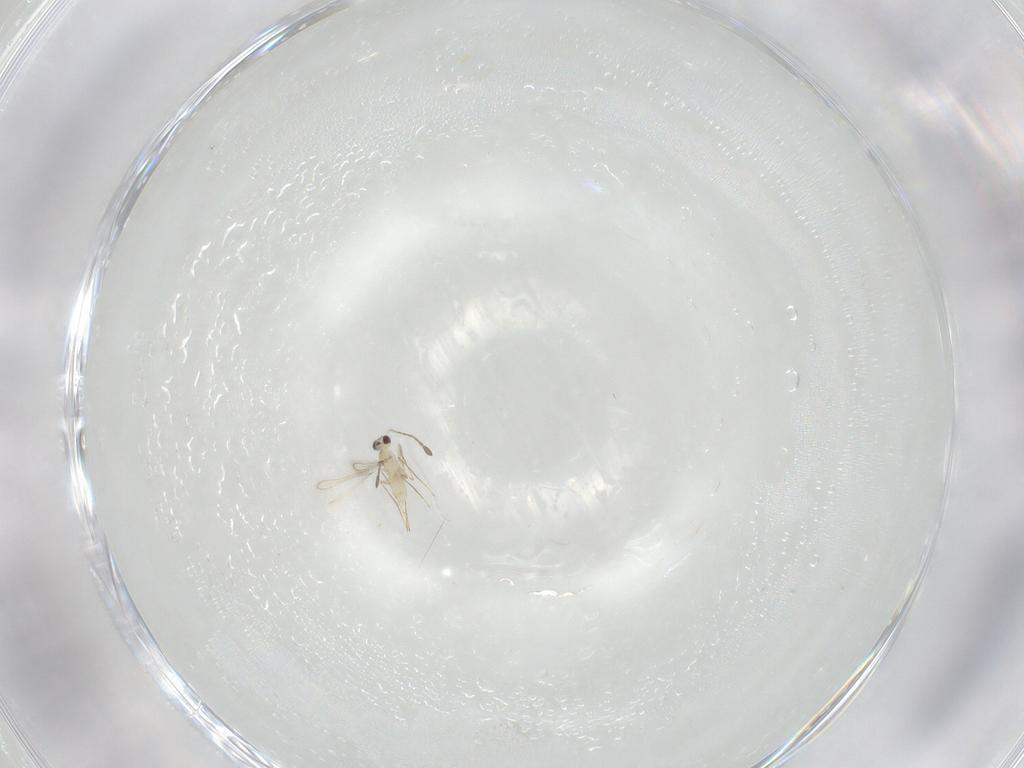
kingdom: Animalia
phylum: Arthropoda
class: Insecta
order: Hymenoptera
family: Mymaridae
